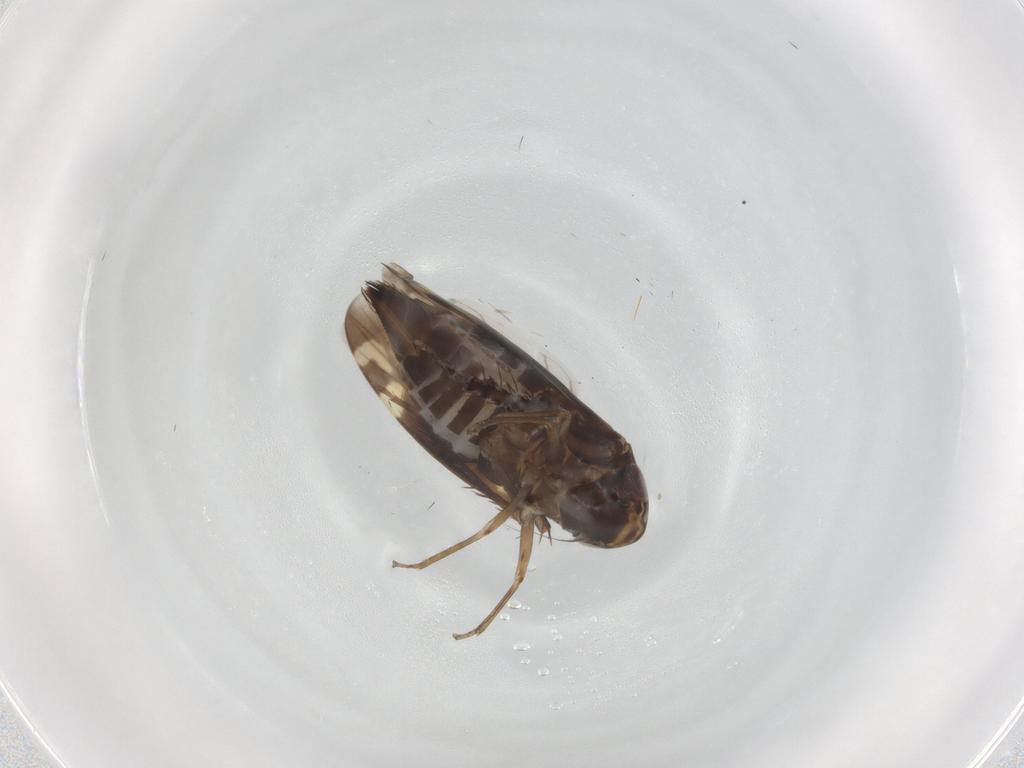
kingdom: Animalia
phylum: Arthropoda
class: Insecta
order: Hemiptera
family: Cicadellidae
